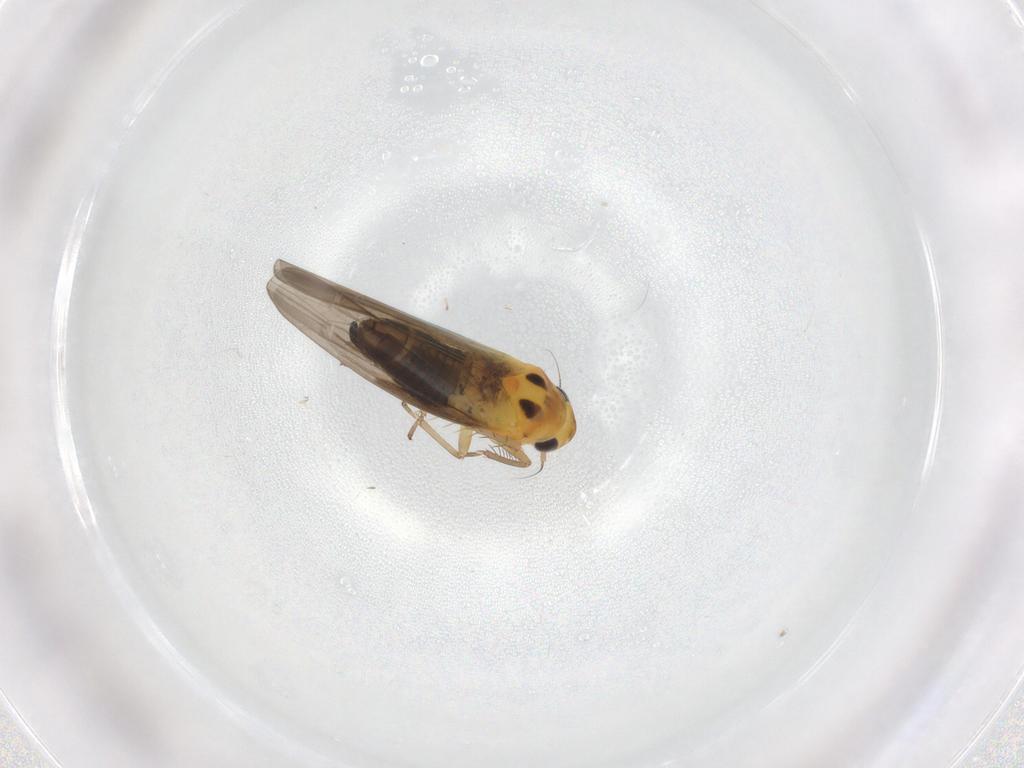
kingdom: Animalia
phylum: Arthropoda
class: Insecta
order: Hemiptera
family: Cicadellidae
